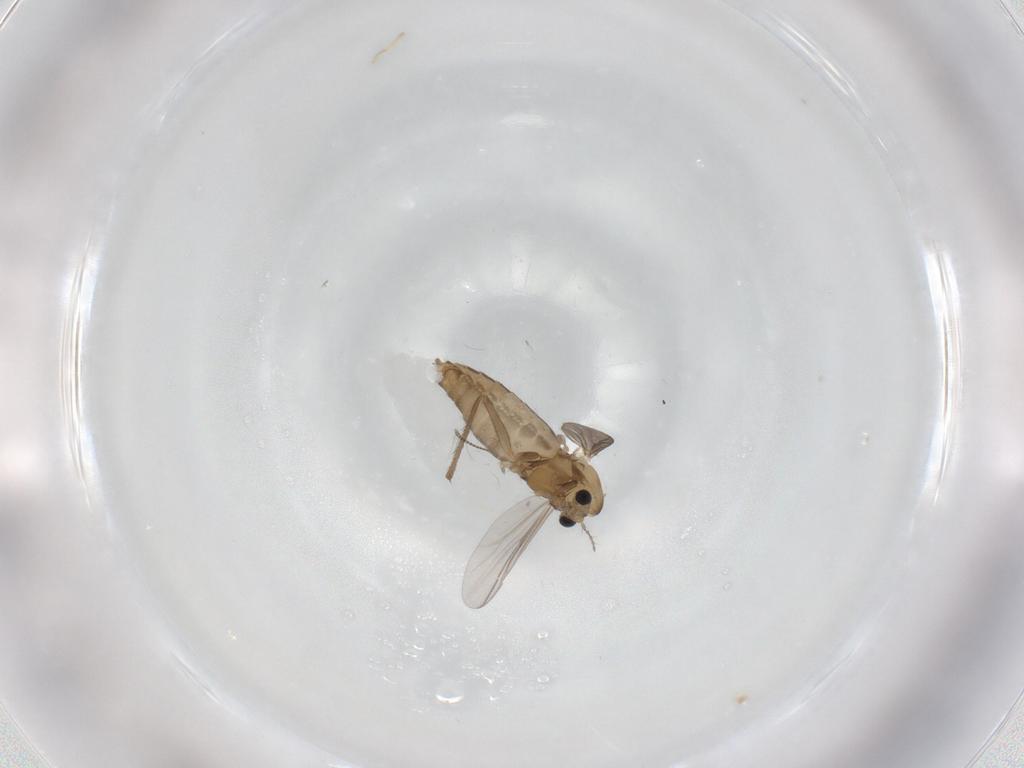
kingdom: Animalia
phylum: Arthropoda
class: Insecta
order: Diptera
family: Chironomidae
